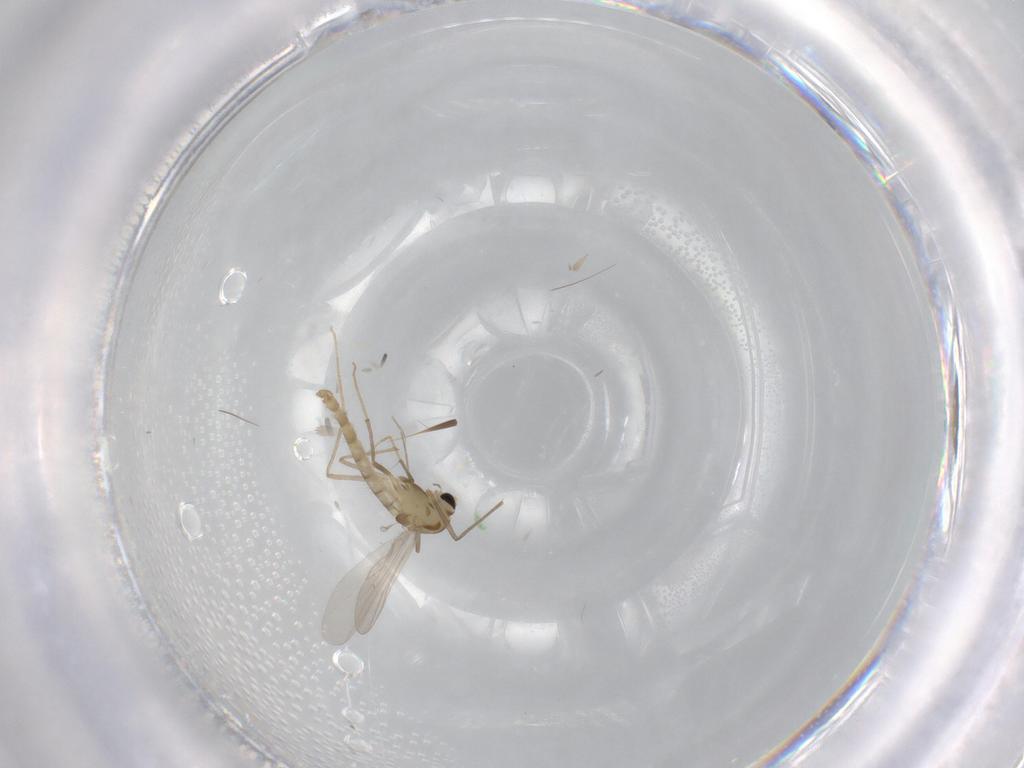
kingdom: Animalia
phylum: Arthropoda
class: Insecta
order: Diptera
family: Chironomidae
